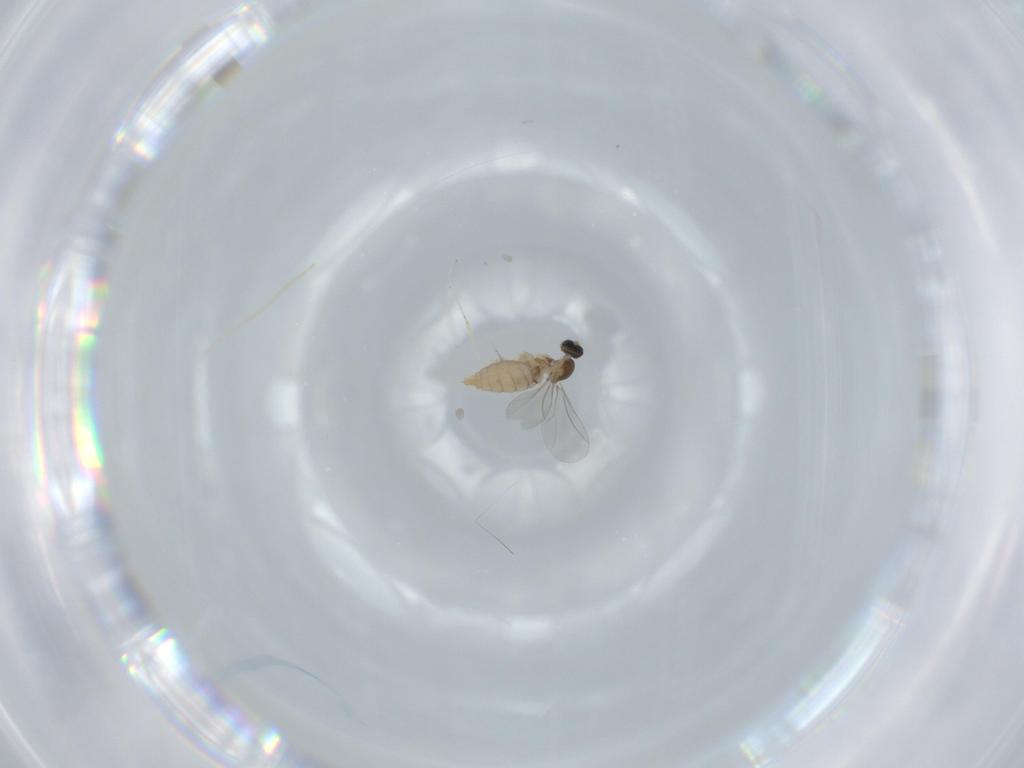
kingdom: Animalia
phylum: Arthropoda
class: Insecta
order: Diptera
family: Cecidomyiidae
